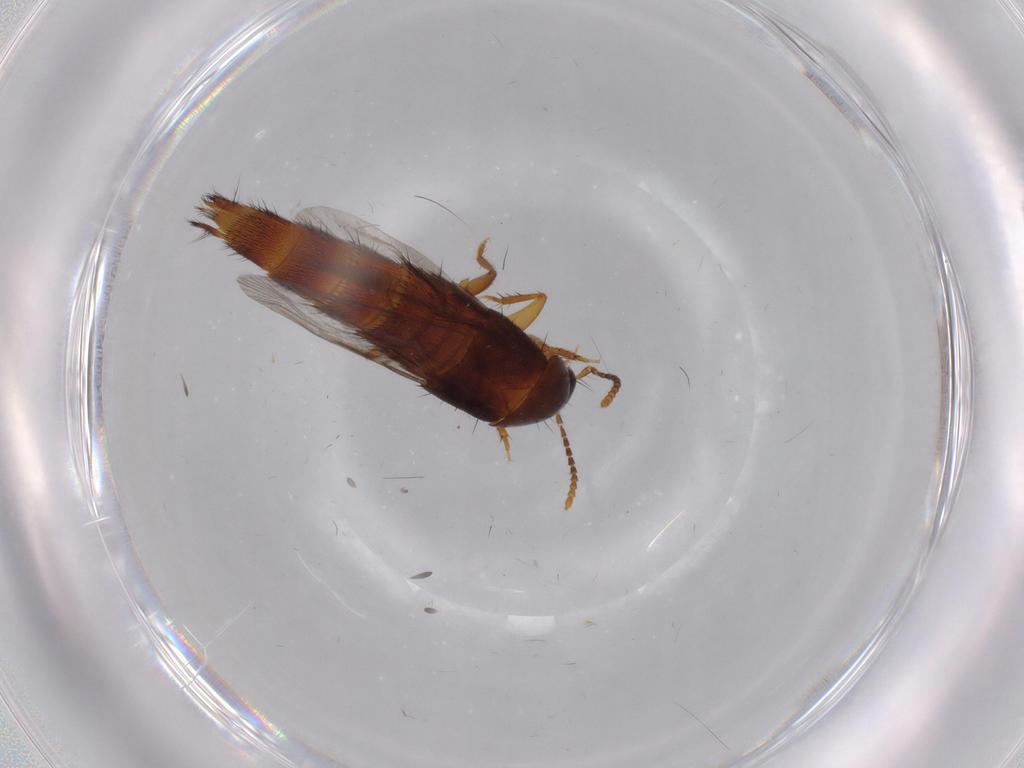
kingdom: Animalia
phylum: Arthropoda
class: Insecta
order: Coleoptera
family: Staphylinidae
